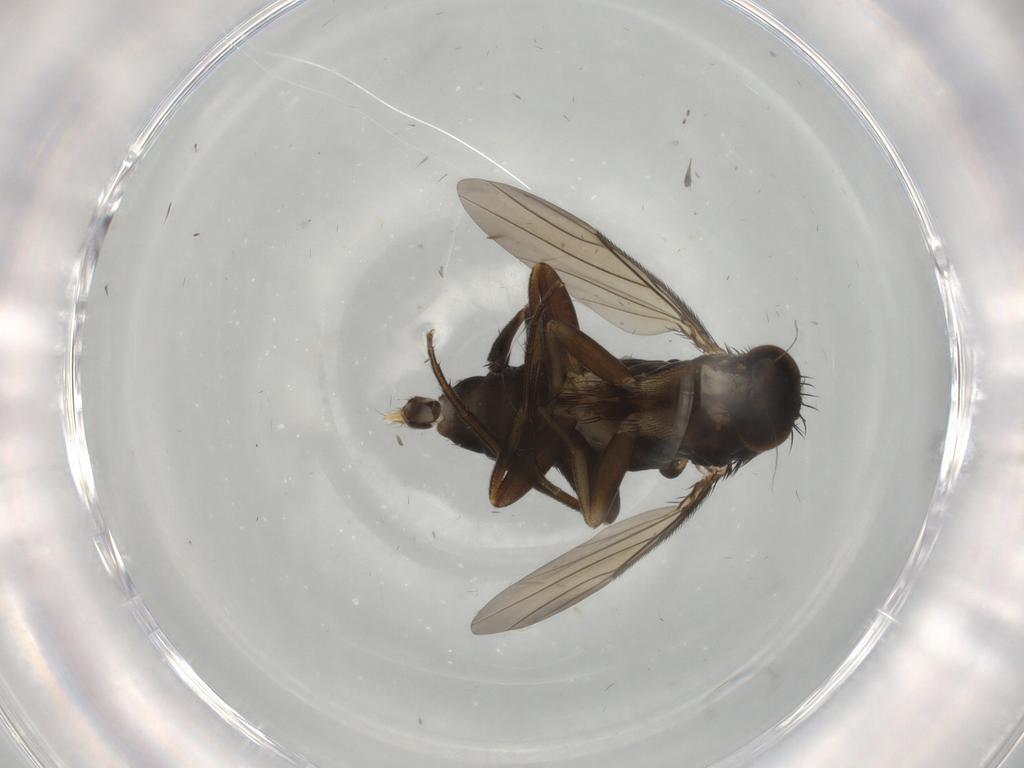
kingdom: Animalia
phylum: Arthropoda
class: Insecta
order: Diptera
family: Phoridae
